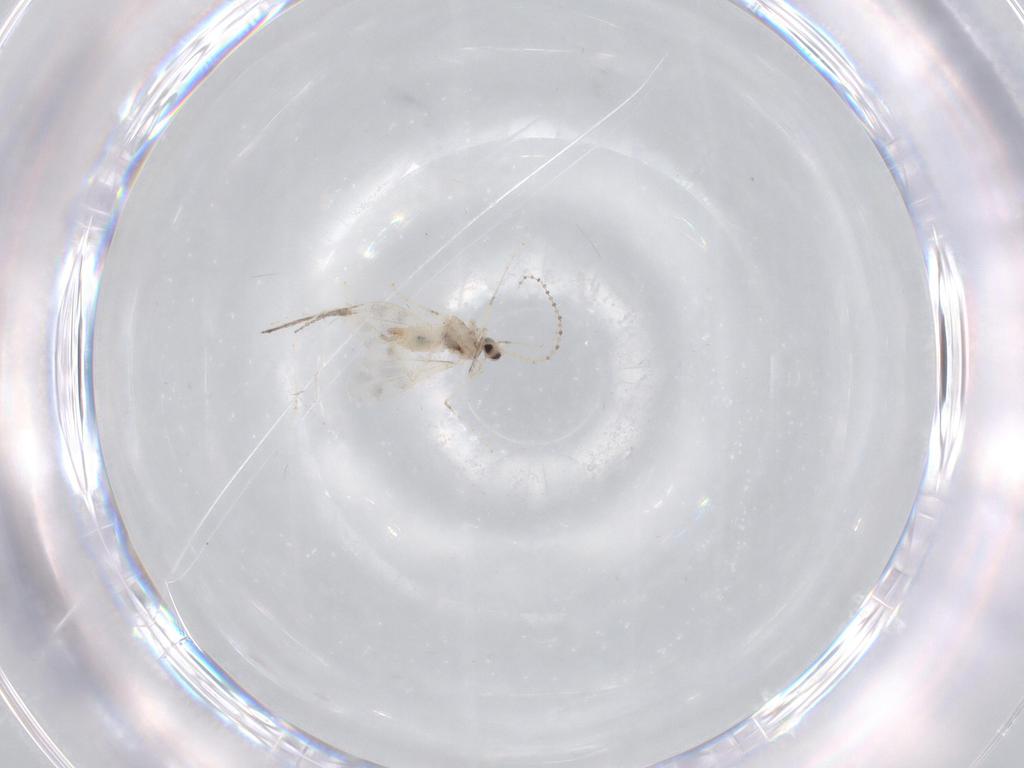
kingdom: Animalia
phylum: Arthropoda
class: Insecta
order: Diptera
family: Cecidomyiidae
